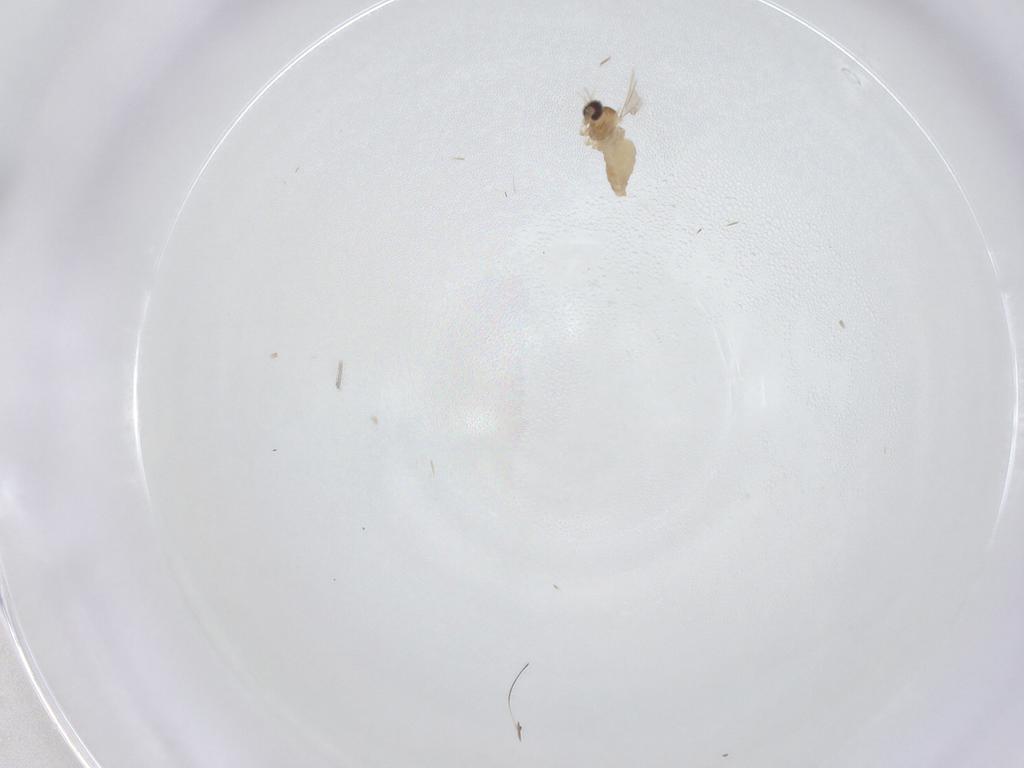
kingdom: Animalia
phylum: Arthropoda
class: Insecta
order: Diptera
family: Cecidomyiidae
